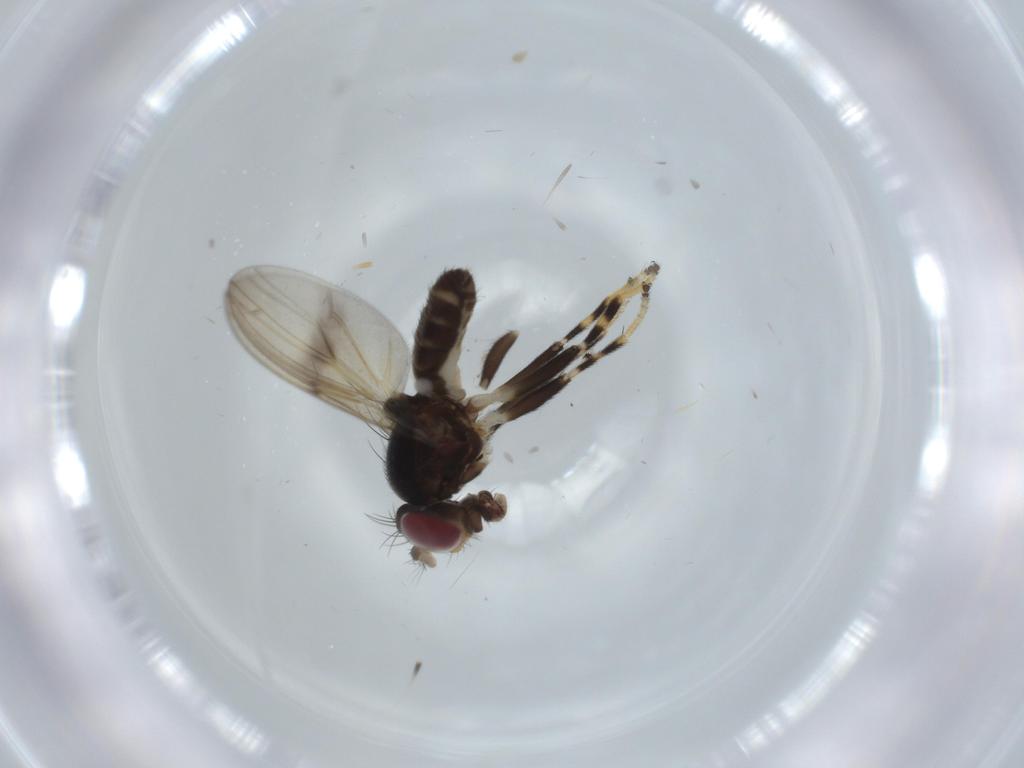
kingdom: Animalia
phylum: Arthropoda
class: Insecta
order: Diptera
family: Ephydridae
